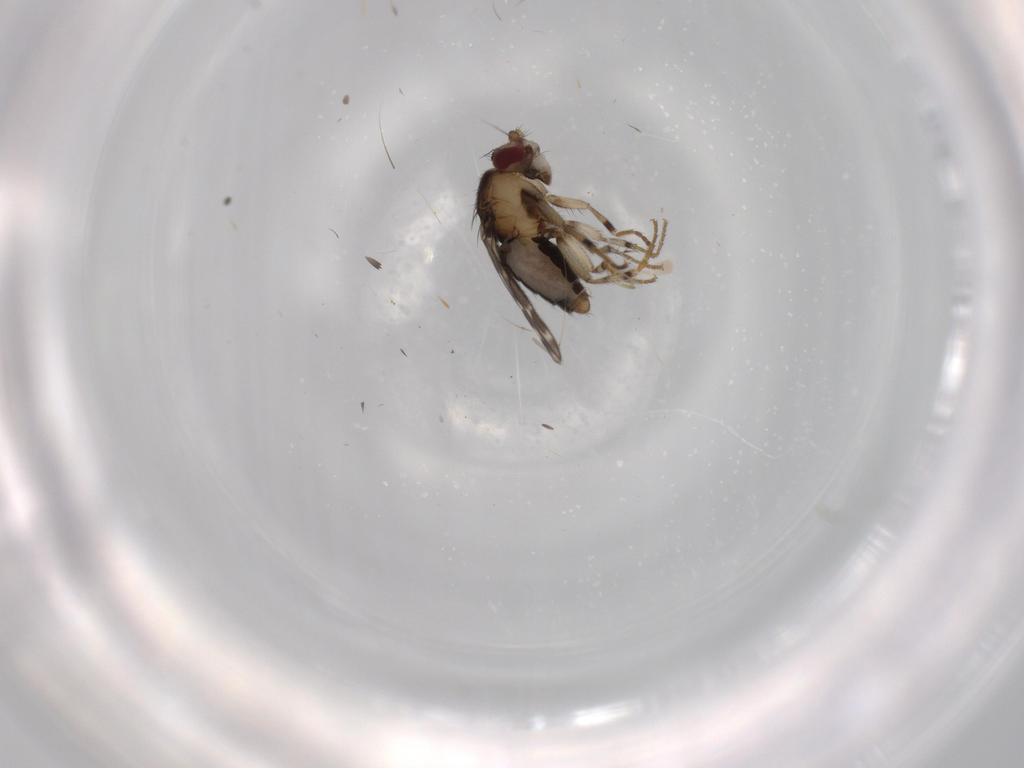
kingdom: Animalia
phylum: Arthropoda
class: Insecta
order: Diptera
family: Sphaeroceridae
